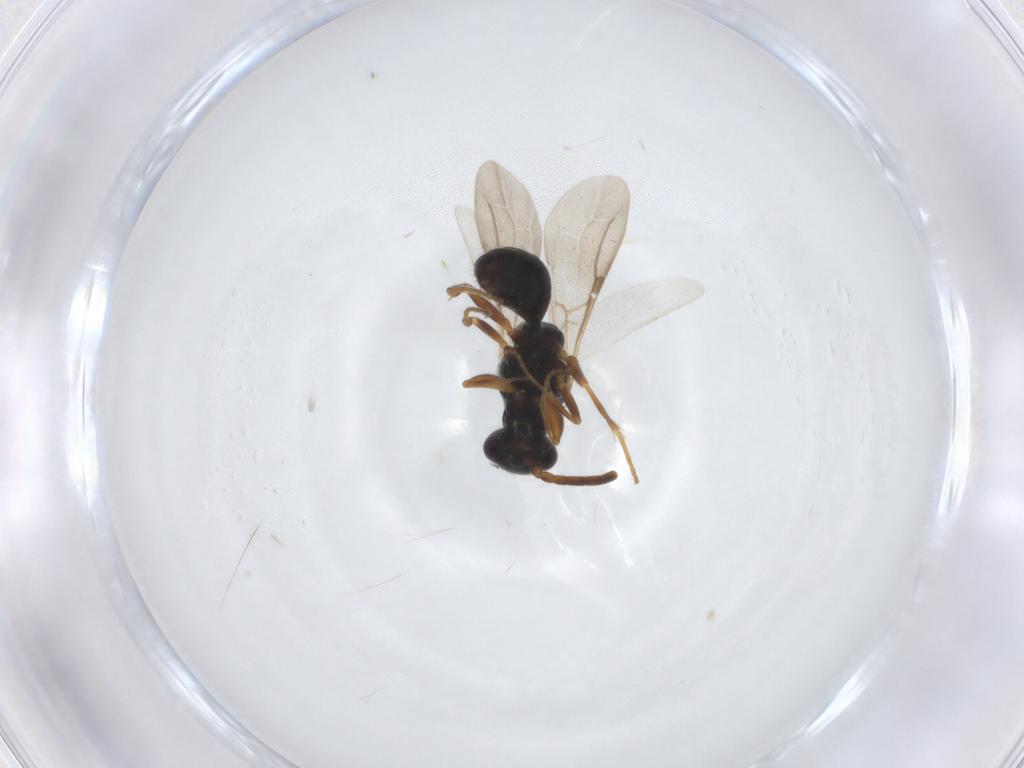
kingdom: Animalia
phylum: Arthropoda
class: Insecta
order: Hymenoptera
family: Bethylidae
